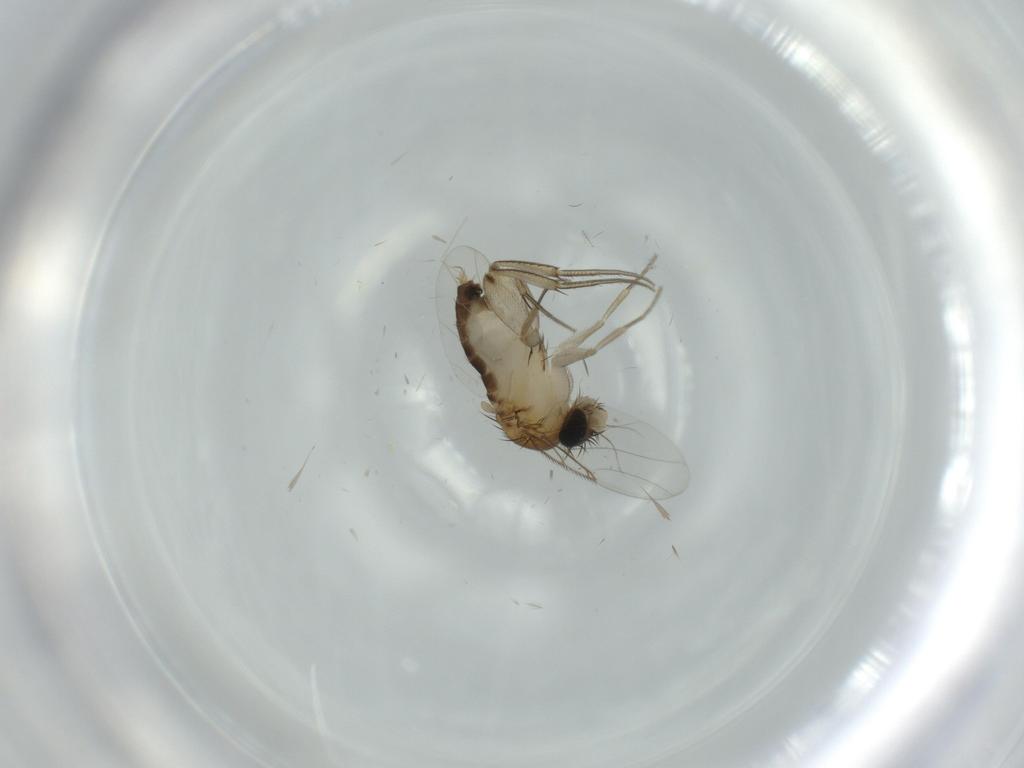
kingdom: Animalia
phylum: Arthropoda
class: Insecta
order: Diptera
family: Phoridae
